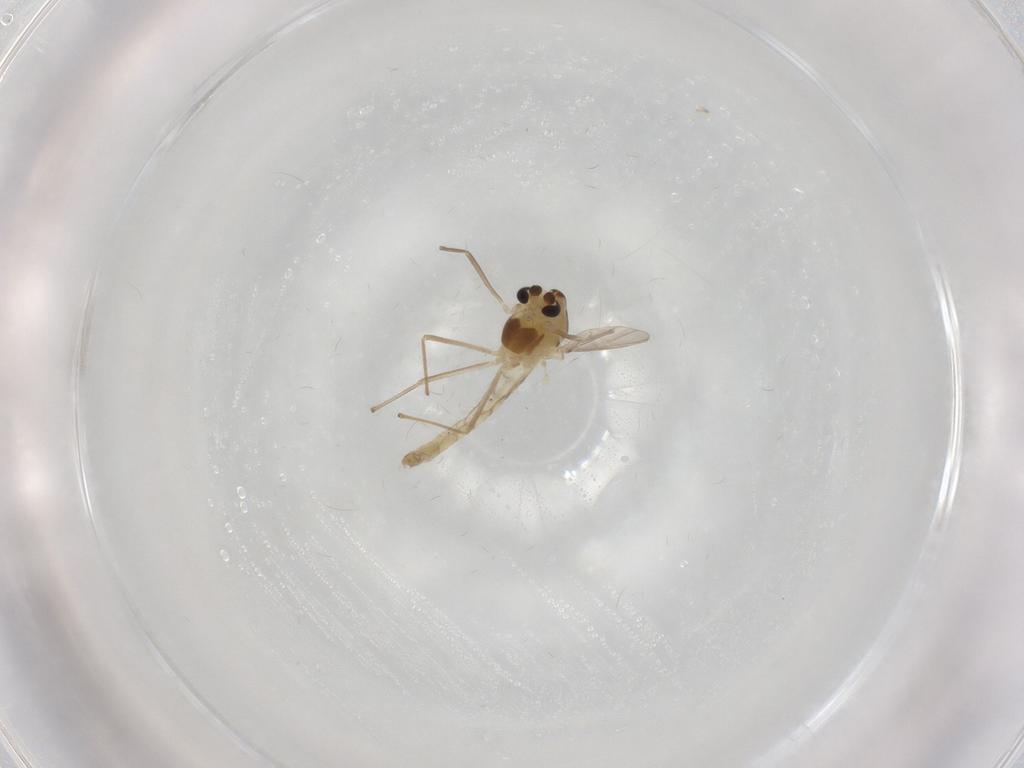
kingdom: Animalia
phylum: Arthropoda
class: Insecta
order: Diptera
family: Chironomidae
